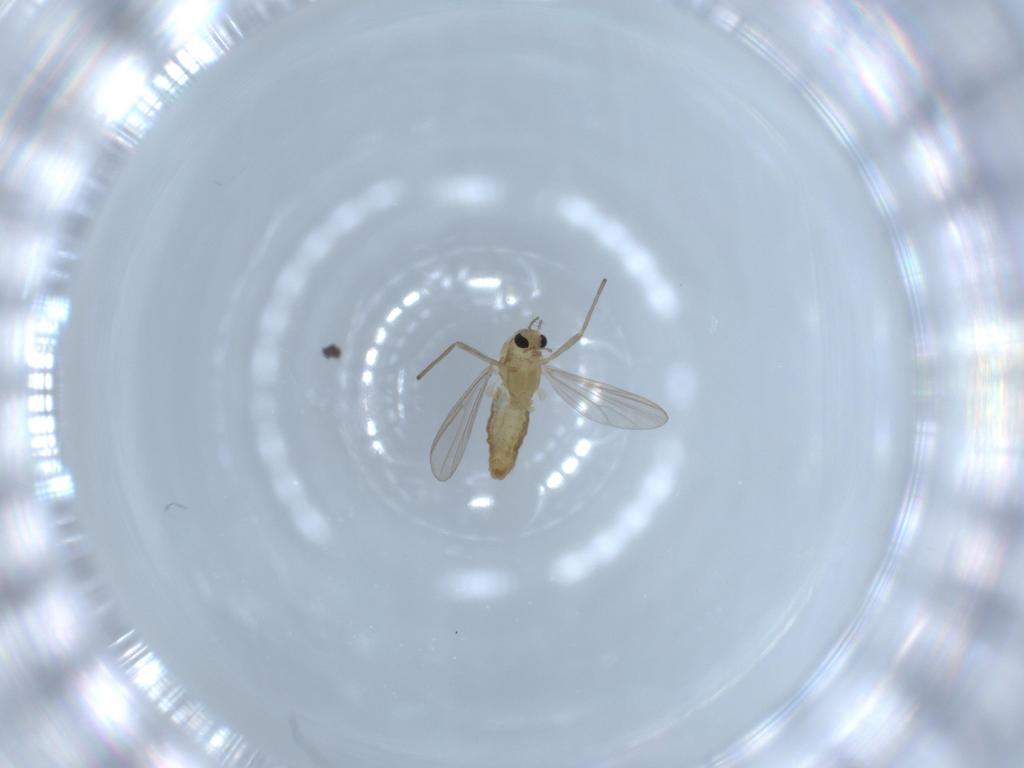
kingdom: Animalia
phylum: Arthropoda
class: Insecta
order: Diptera
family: Chironomidae
